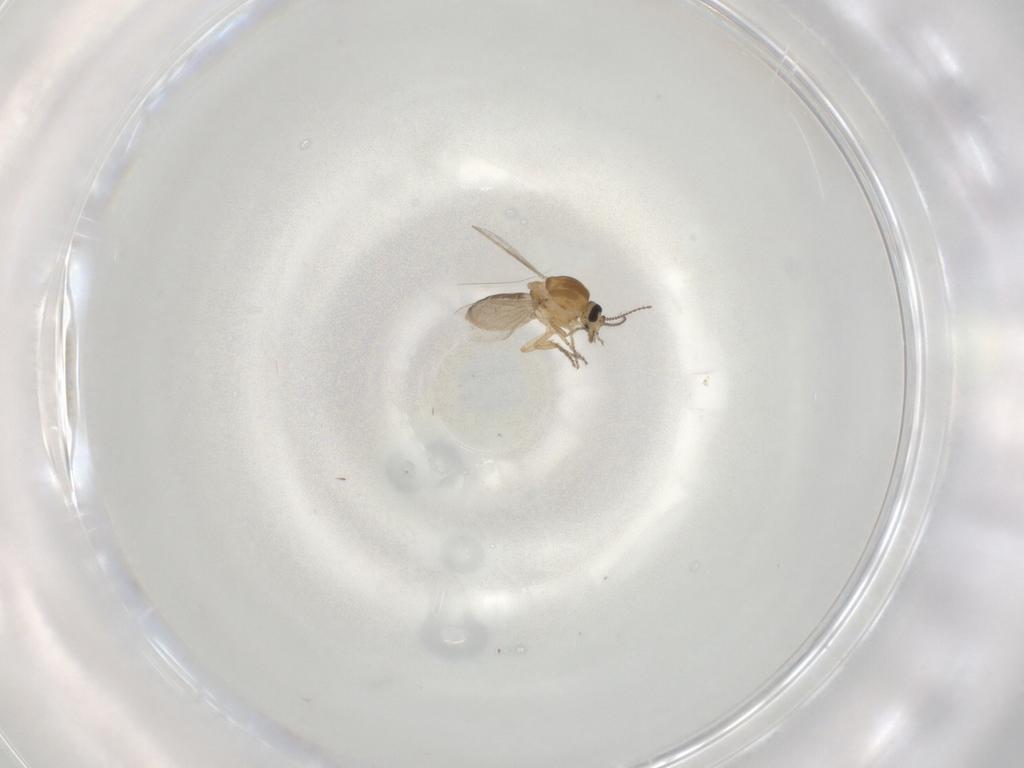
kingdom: Animalia
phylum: Arthropoda
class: Insecta
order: Diptera
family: Ceratopogonidae
